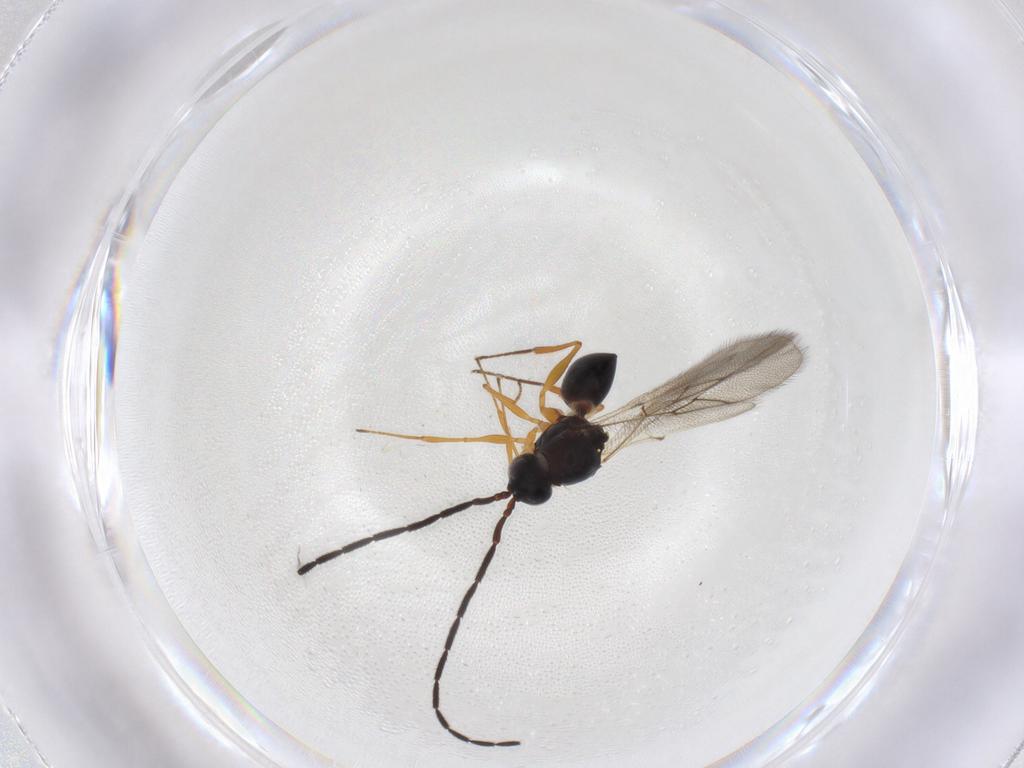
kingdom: Animalia
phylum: Arthropoda
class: Insecta
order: Hymenoptera
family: Figitidae
